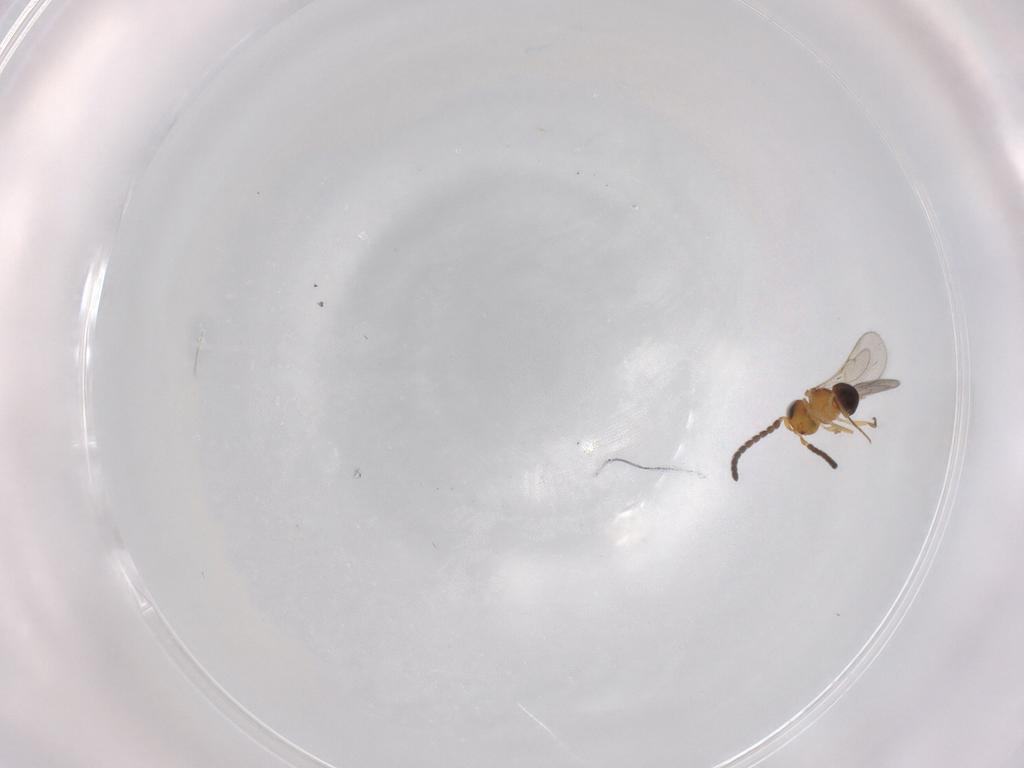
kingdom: Animalia
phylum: Arthropoda
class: Insecta
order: Hymenoptera
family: Scelionidae
